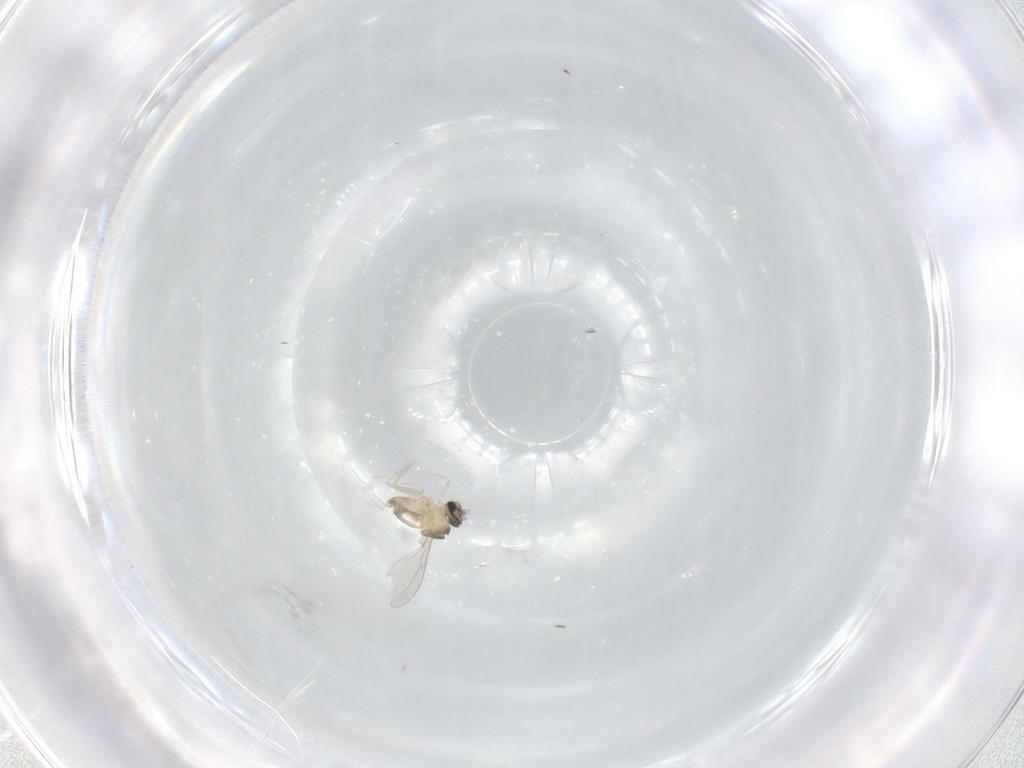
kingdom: Animalia
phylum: Arthropoda
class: Insecta
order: Diptera
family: Cecidomyiidae
